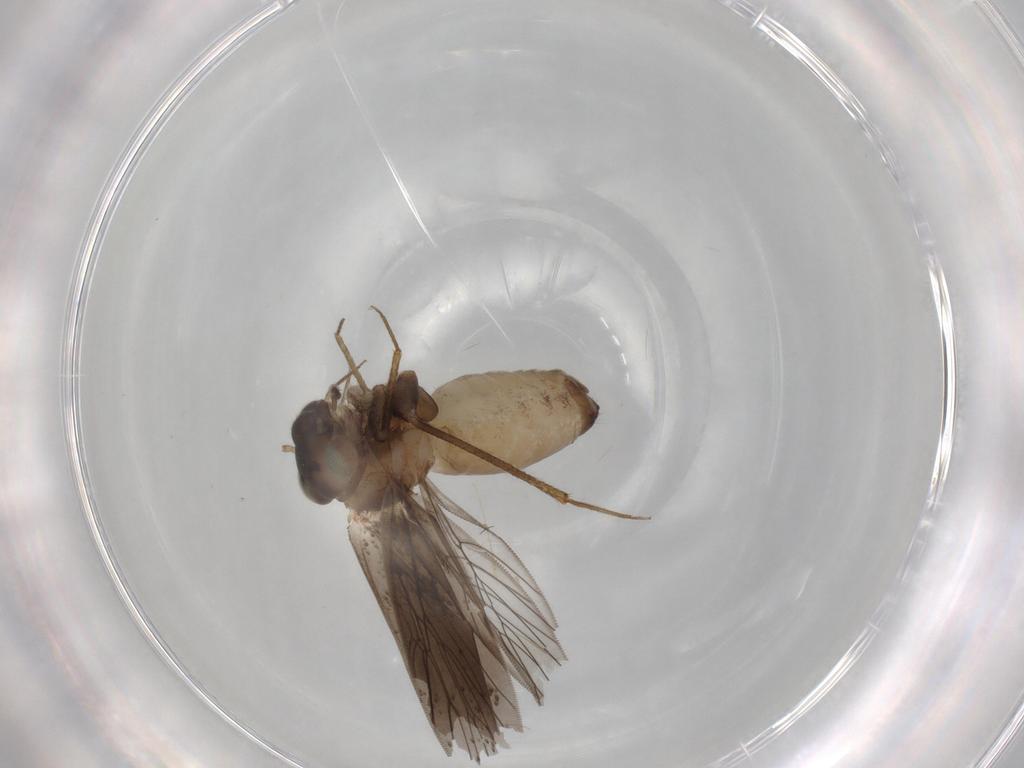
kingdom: Animalia
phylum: Arthropoda
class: Insecta
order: Psocodea
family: Lepidopsocidae
